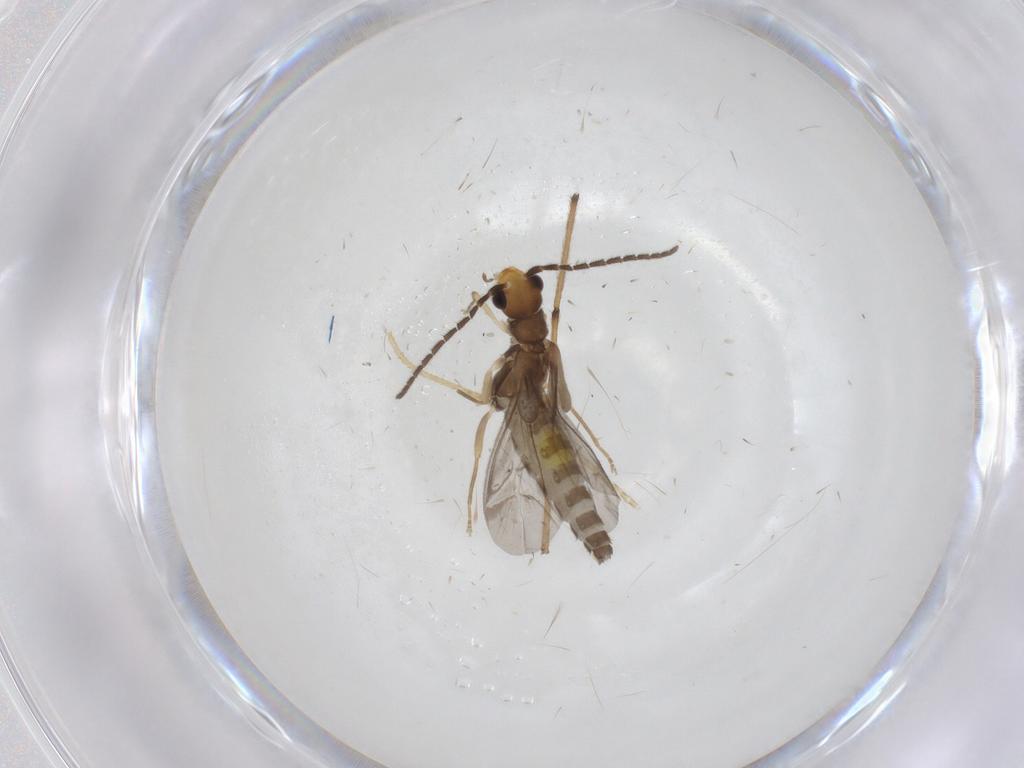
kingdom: Animalia
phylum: Arthropoda
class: Insecta
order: Coleoptera
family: Cantharidae
